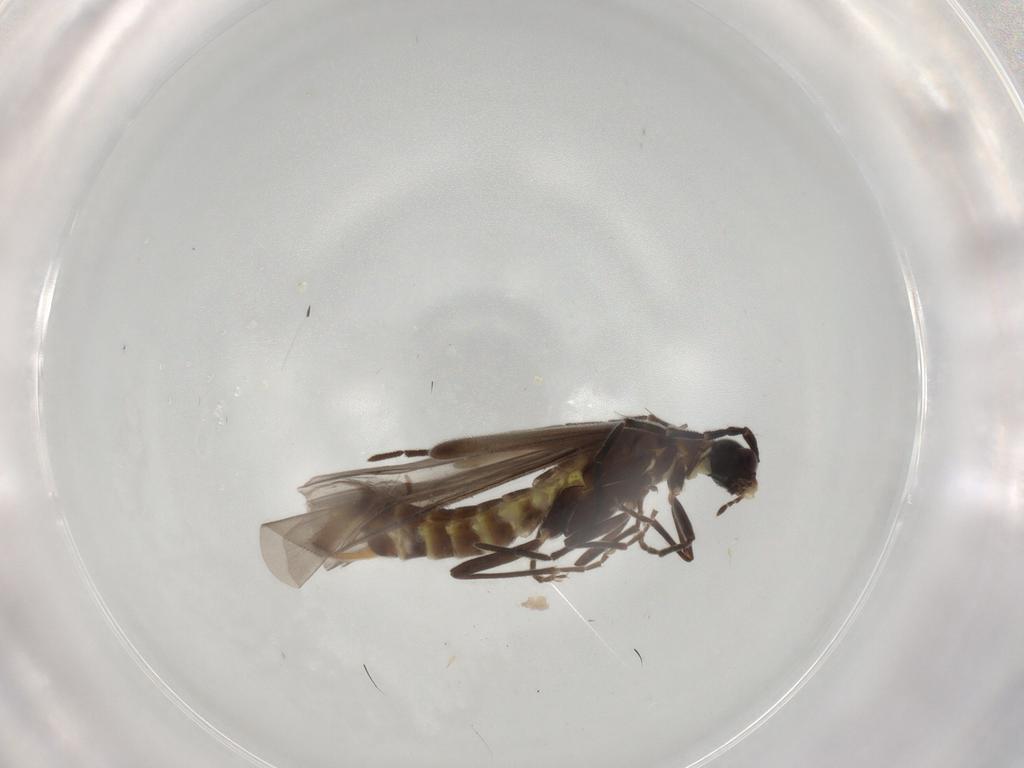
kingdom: Animalia
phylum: Arthropoda
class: Insecta
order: Coleoptera
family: Cantharidae
